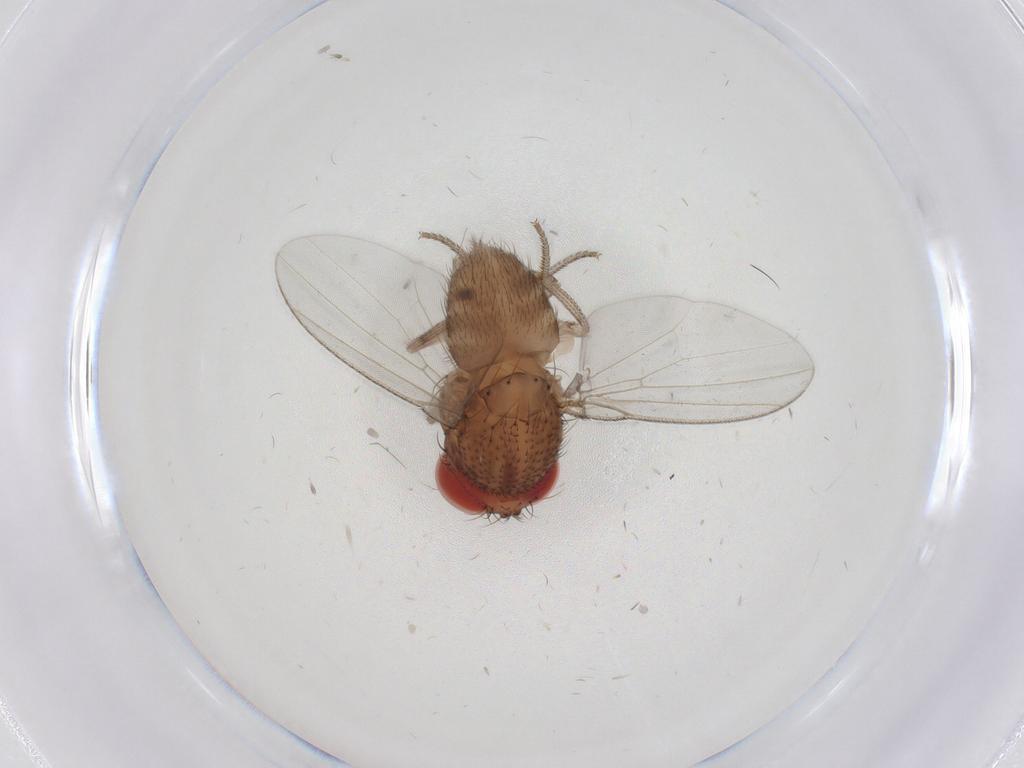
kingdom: Animalia
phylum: Arthropoda
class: Insecta
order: Diptera
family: Drosophilidae
